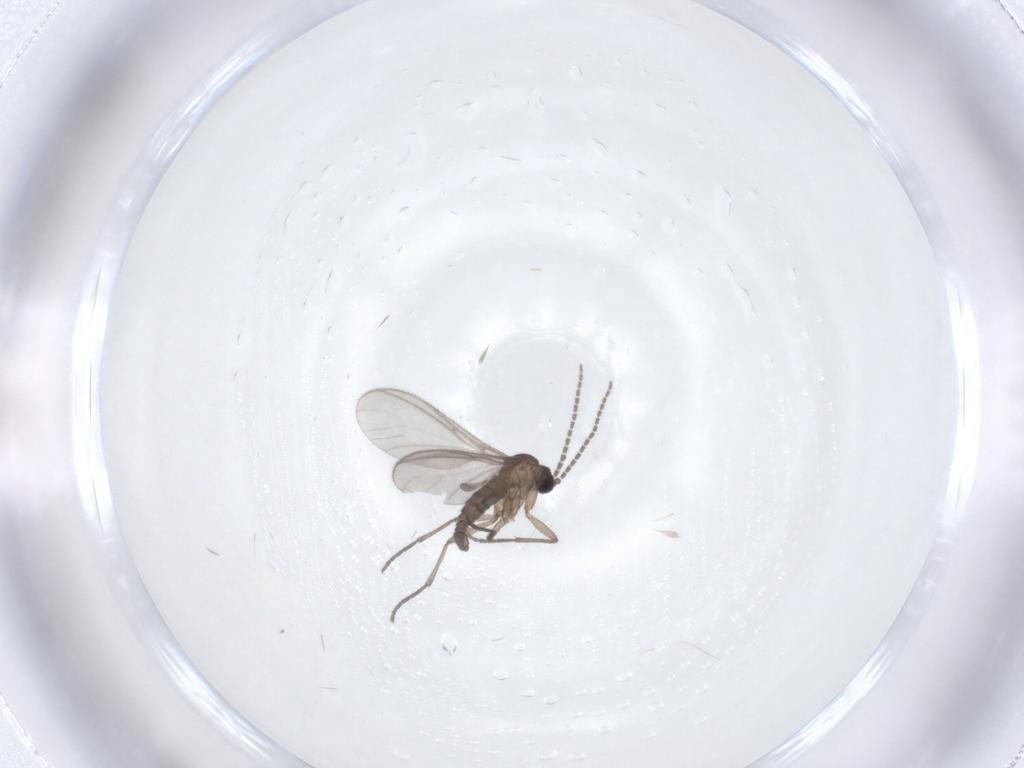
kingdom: Animalia
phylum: Arthropoda
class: Insecta
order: Diptera
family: Sciaridae
